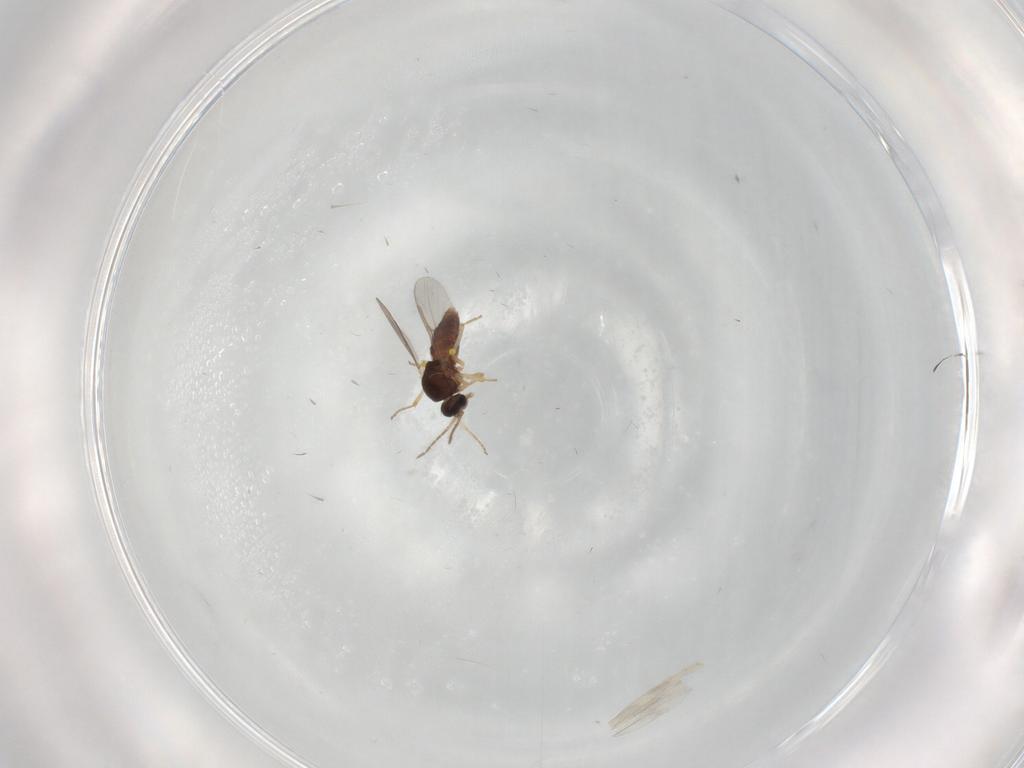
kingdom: Animalia
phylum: Arthropoda
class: Insecta
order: Diptera
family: Ceratopogonidae
